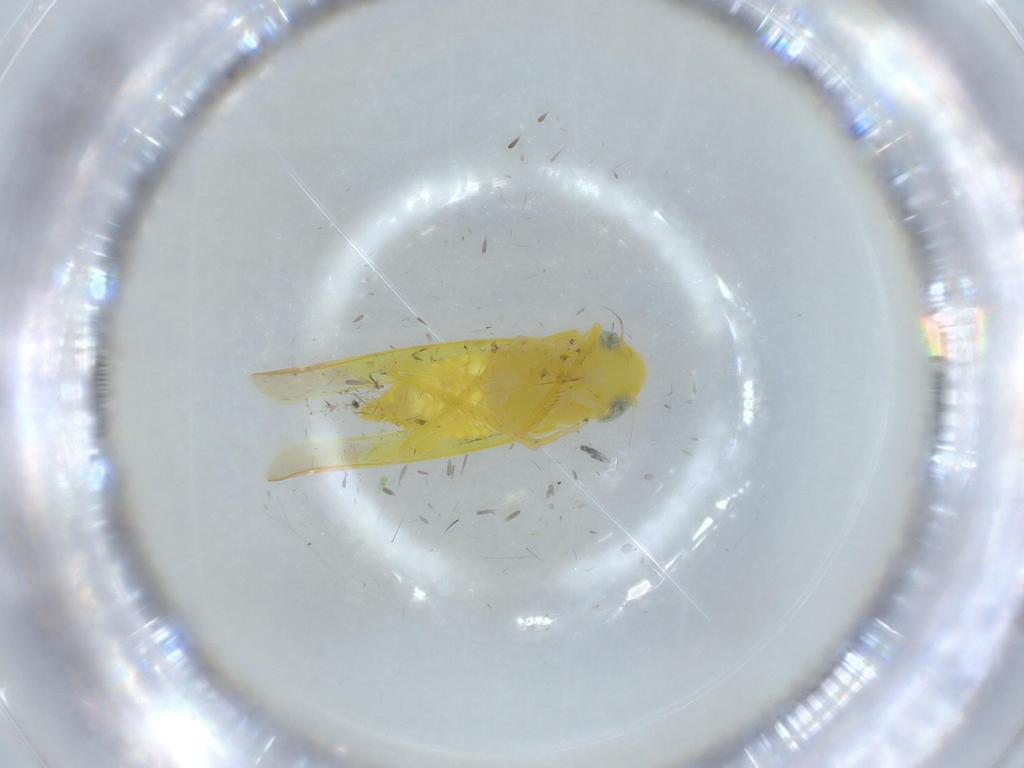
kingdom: Animalia
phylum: Arthropoda
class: Insecta
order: Hemiptera
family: Cicadellidae
